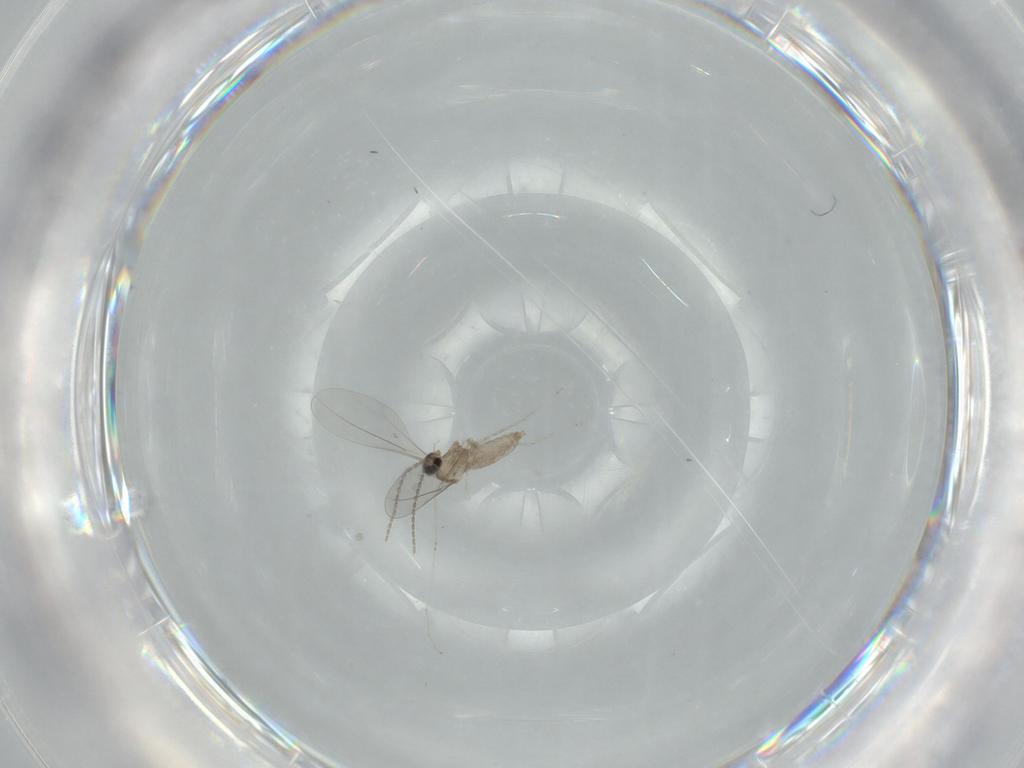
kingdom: Animalia
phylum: Arthropoda
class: Insecta
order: Diptera
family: Cecidomyiidae
